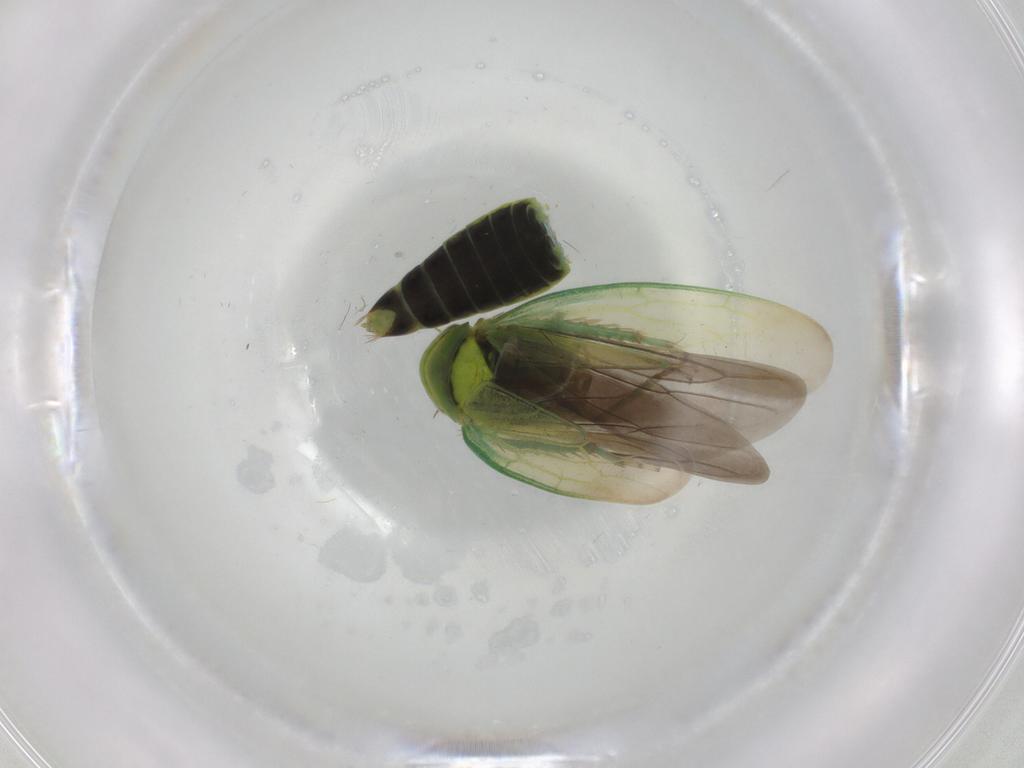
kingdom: Animalia
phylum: Arthropoda
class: Insecta
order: Hemiptera
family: Cicadellidae
